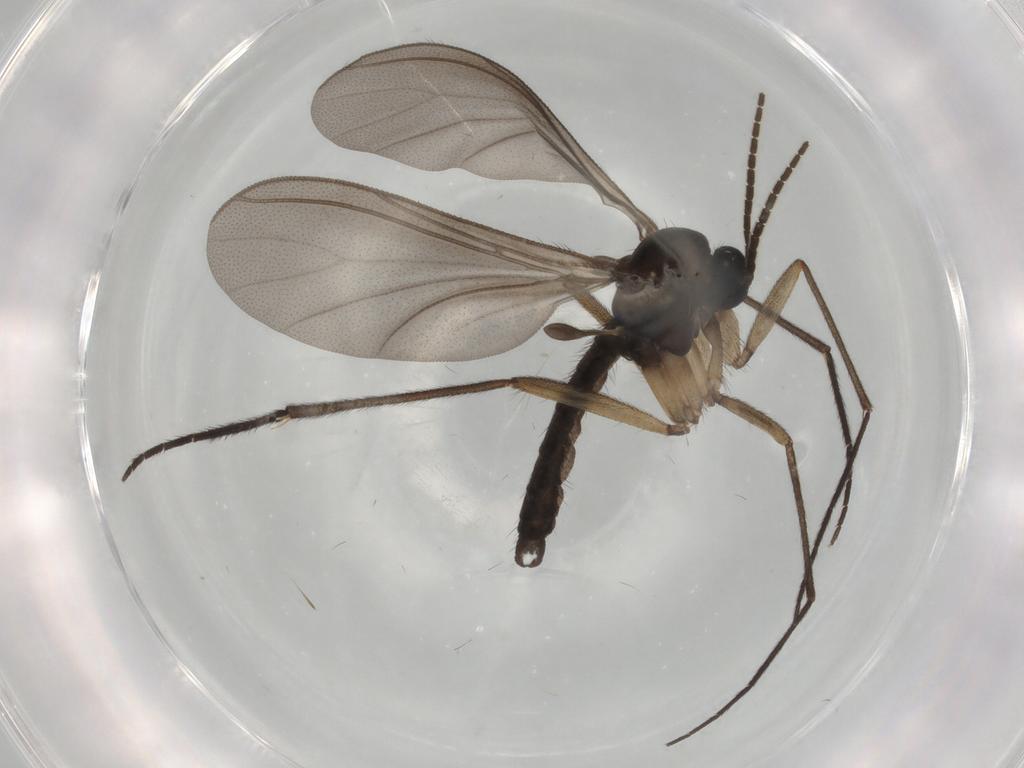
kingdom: Animalia
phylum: Arthropoda
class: Insecta
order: Diptera
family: Sciaridae
